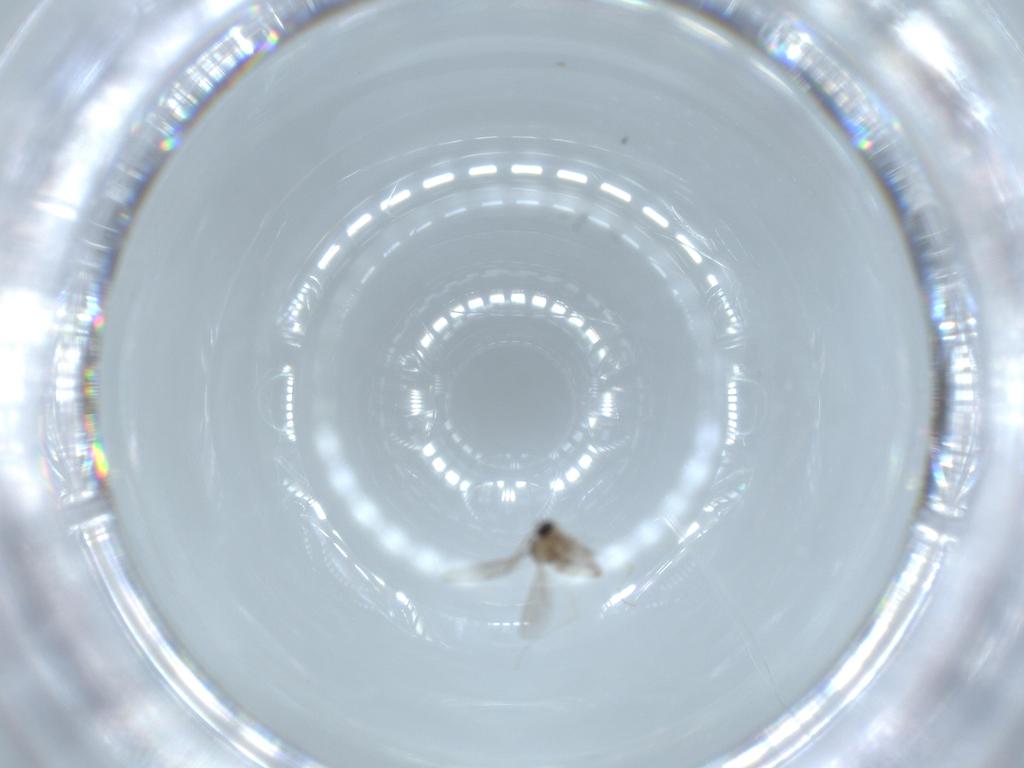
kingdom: Animalia
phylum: Arthropoda
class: Insecta
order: Diptera
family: Cecidomyiidae
